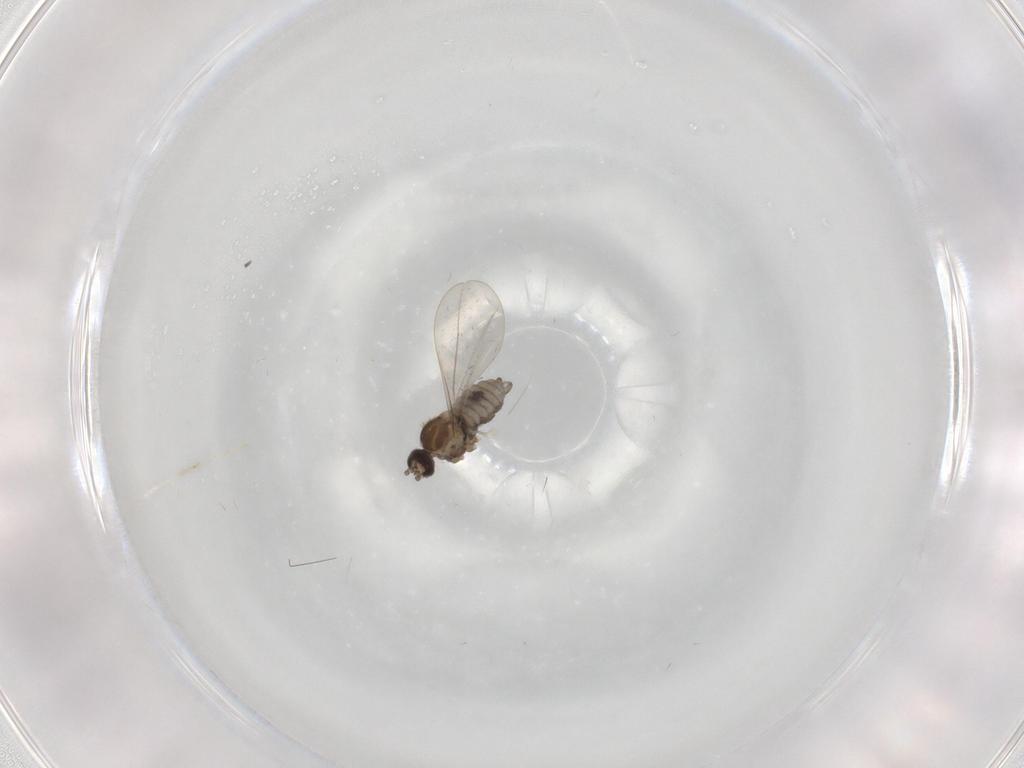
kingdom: Animalia
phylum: Arthropoda
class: Insecta
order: Diptera
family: Cecidomyiidae
